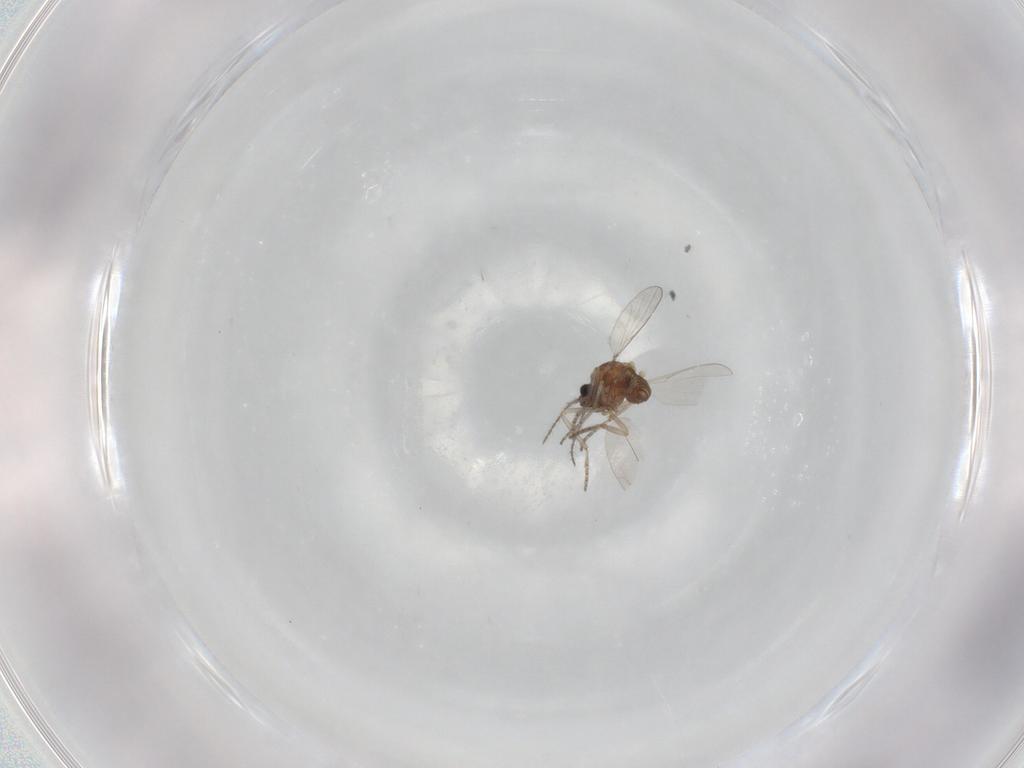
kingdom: Animalia
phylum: Arthropoda
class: Insecta
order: Diptera
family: Cecidomyiidae
